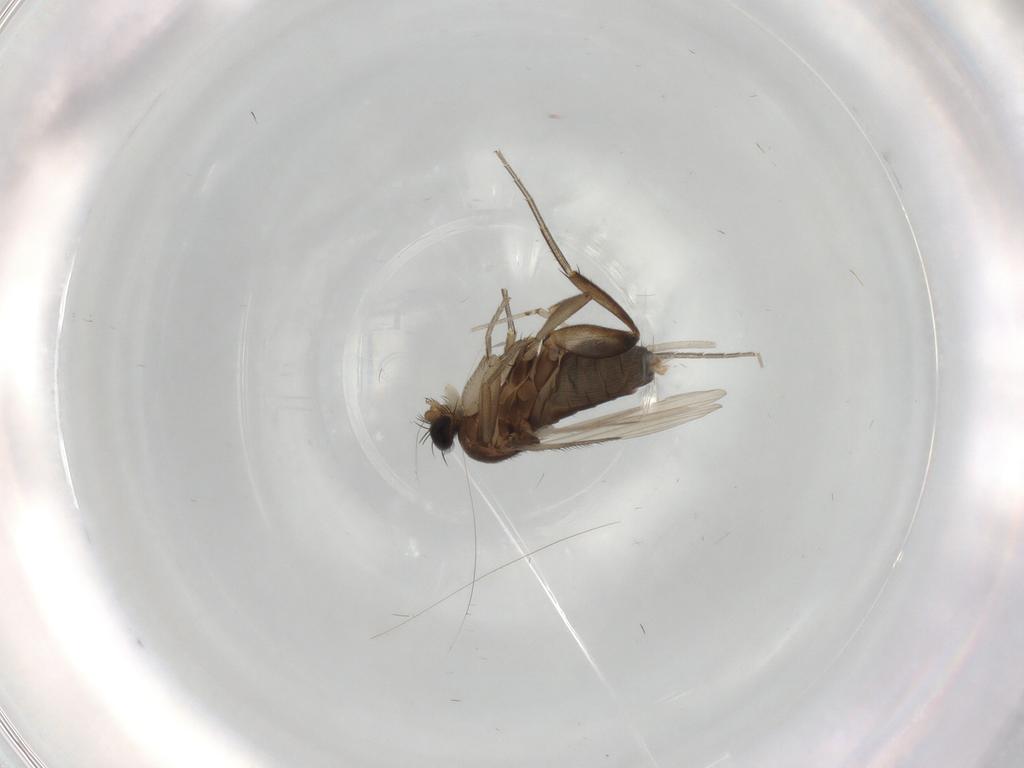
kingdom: Animalia
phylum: Arthropoda
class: Insecta
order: Diptera
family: Phoridae
